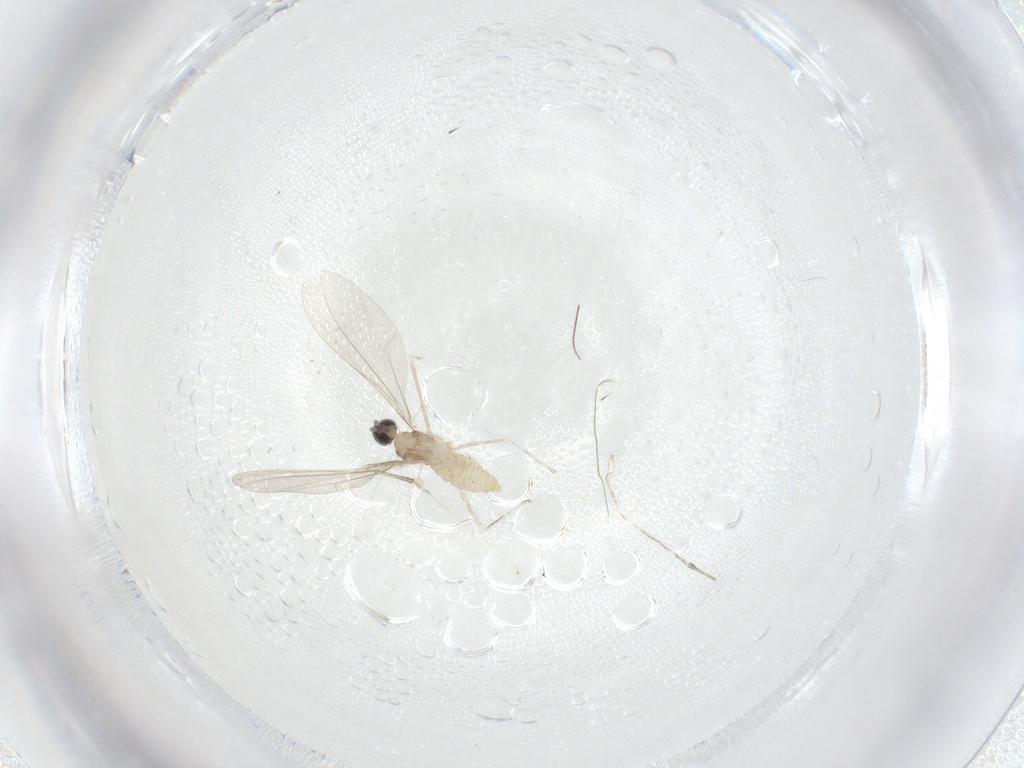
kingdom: Animalia
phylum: Arthropoda
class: Insecta
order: Diptera
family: Cecidomyiidae
